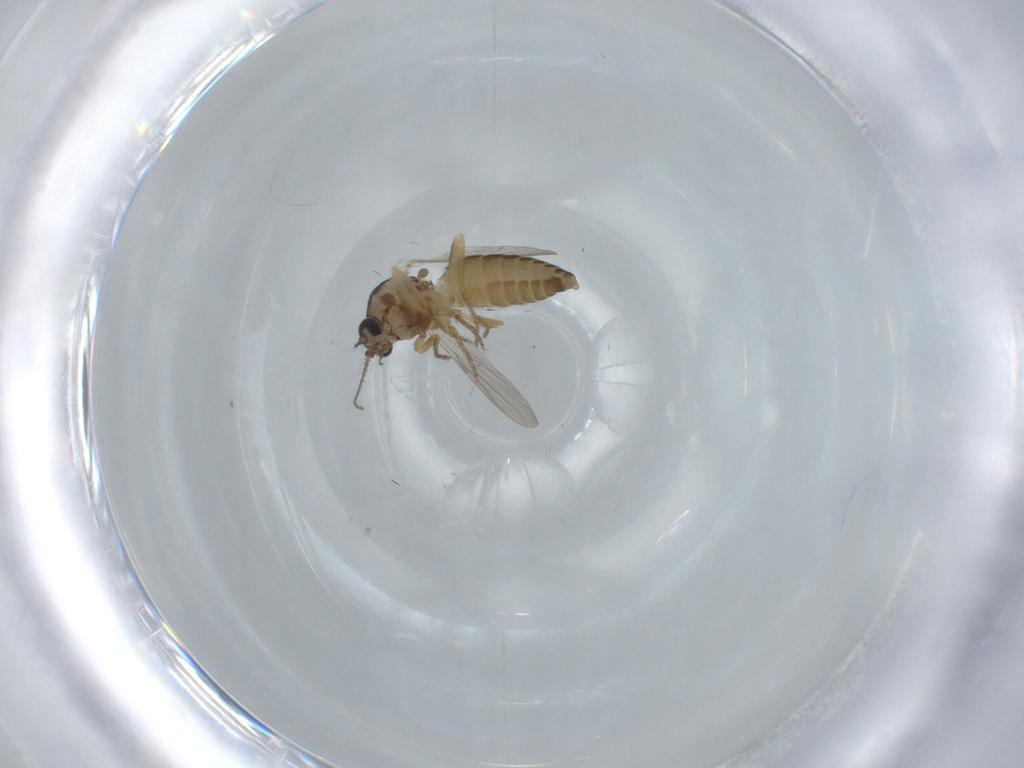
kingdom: Animalia
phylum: Arthropoda
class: Insecta
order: Diptera
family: Ceratopogonidae
